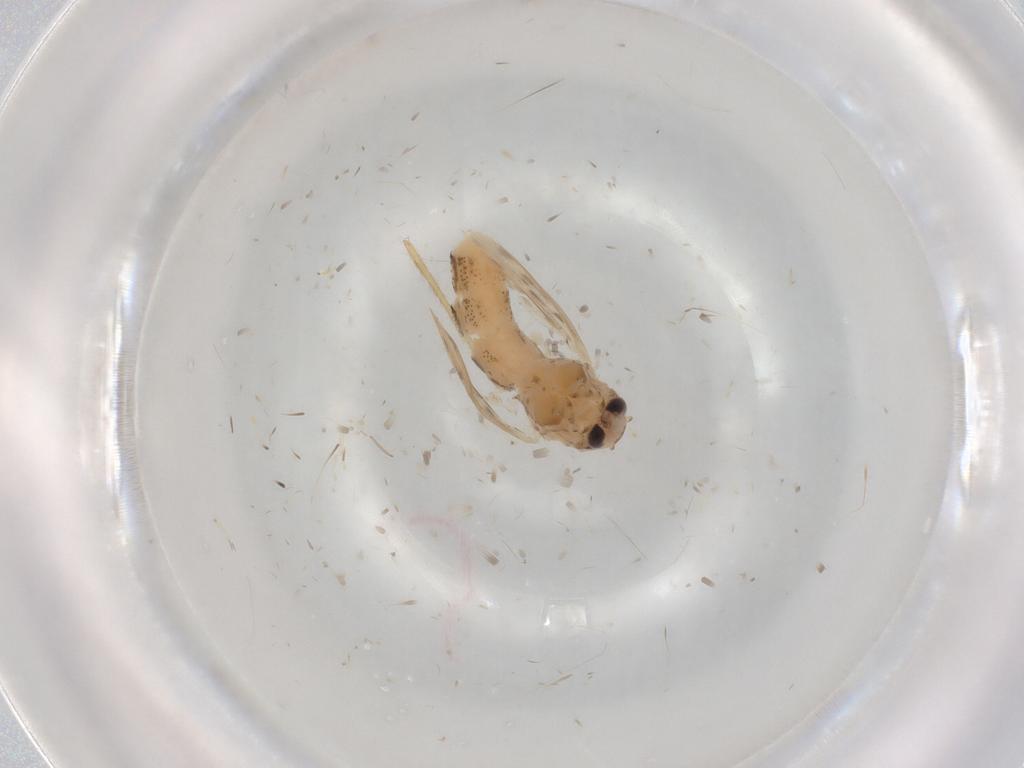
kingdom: Animalia
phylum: Arthropoda
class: Insecta
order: Diptera
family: Chaoboridae
